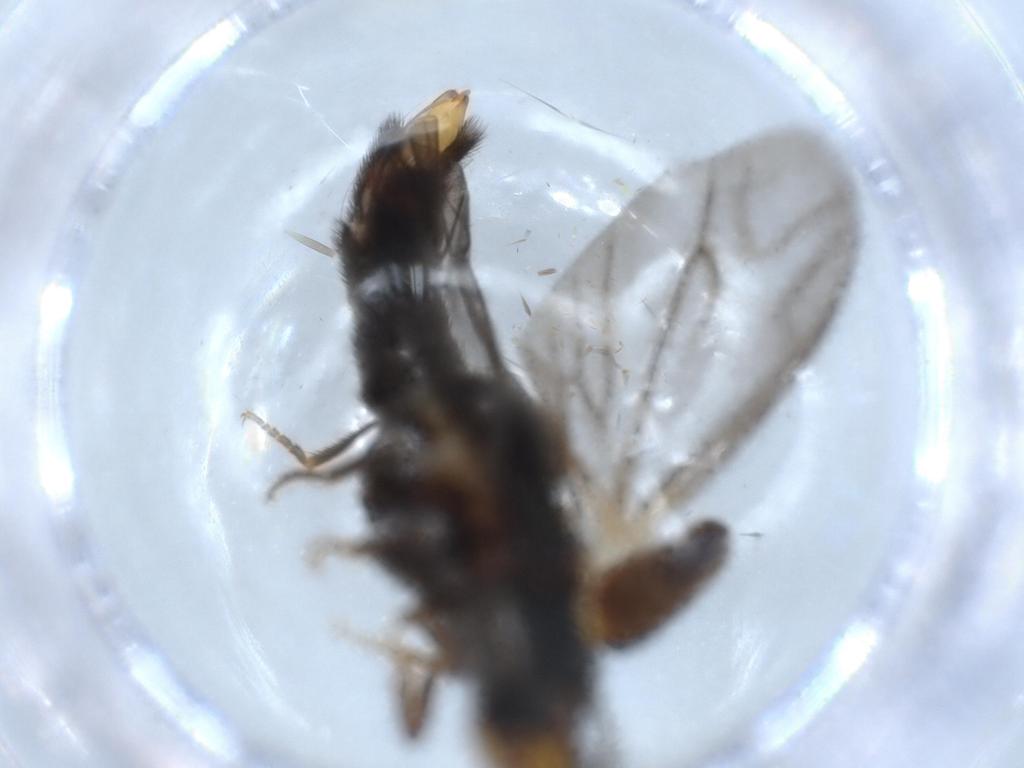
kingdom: Animalia
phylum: Arthropoda
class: Insecta
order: Coleoptera
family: Phengodidae
